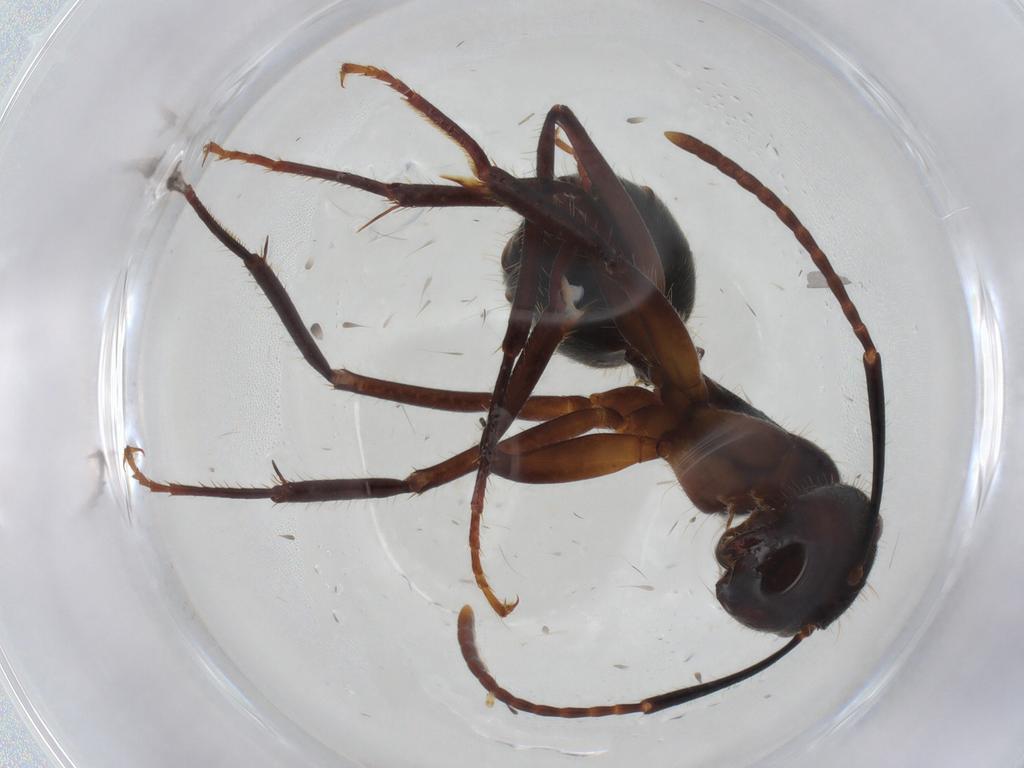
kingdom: Animalia
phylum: Arthropoda
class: Insecta
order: Hymenoptera
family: Formicidae
